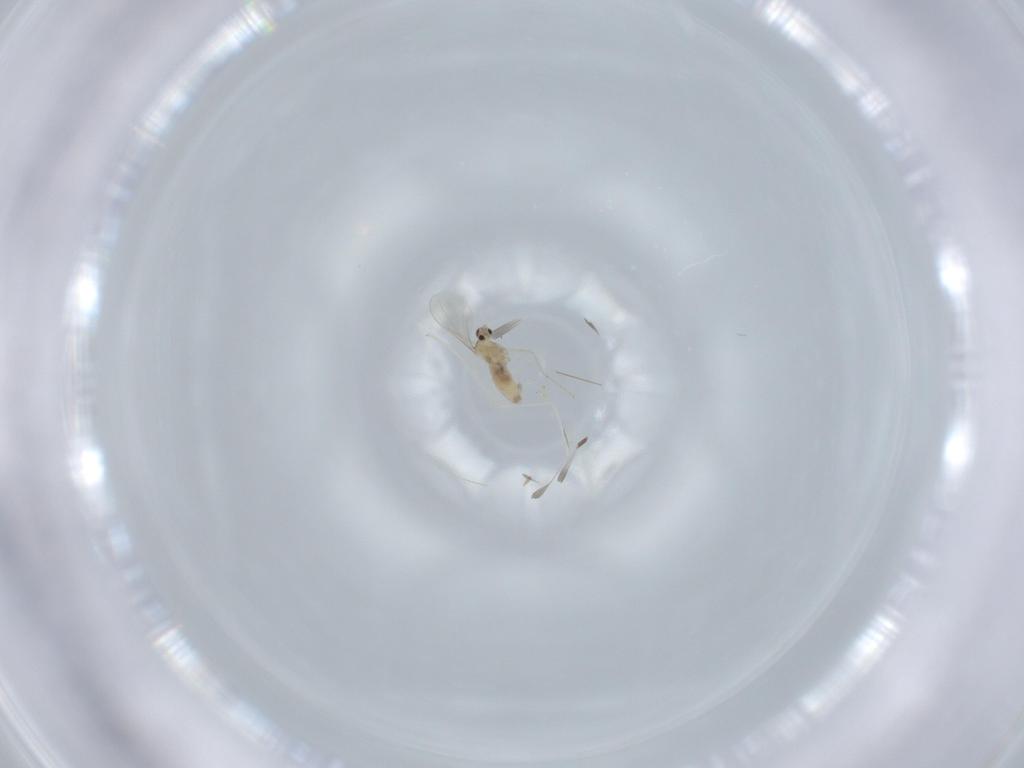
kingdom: Animalia
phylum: Arthropoda
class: Insecta
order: Diptera
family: Cecidomyiidae
